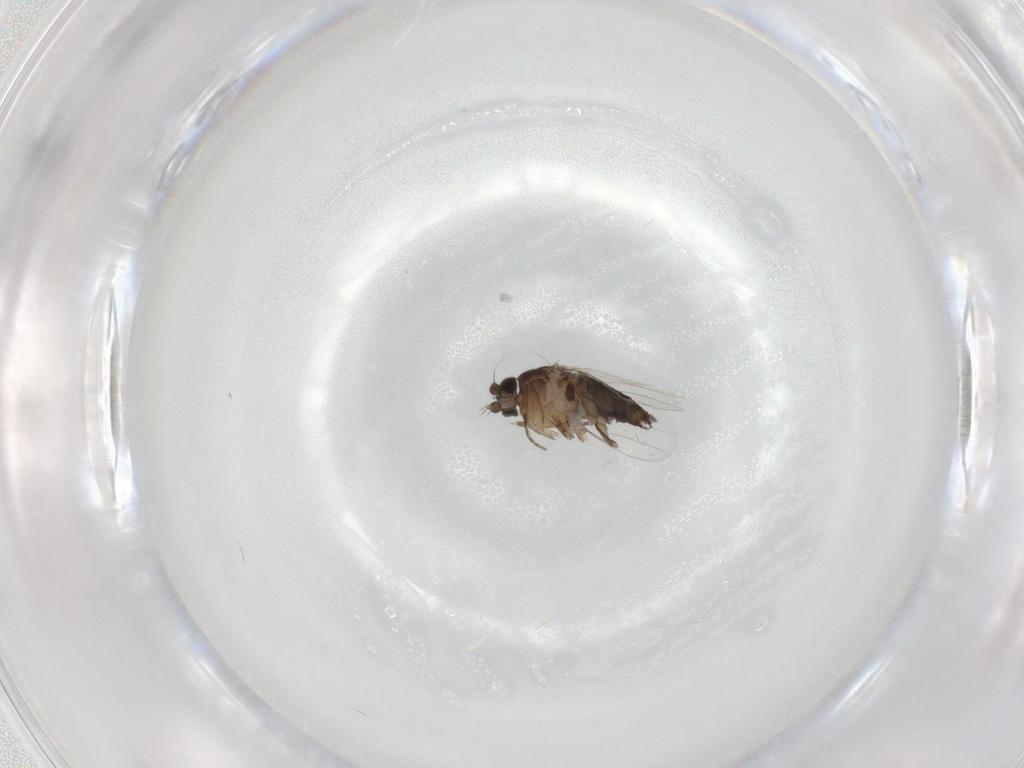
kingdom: Animalia
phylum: Arthropoda
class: Insecta
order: Diptera
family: Phoridae
